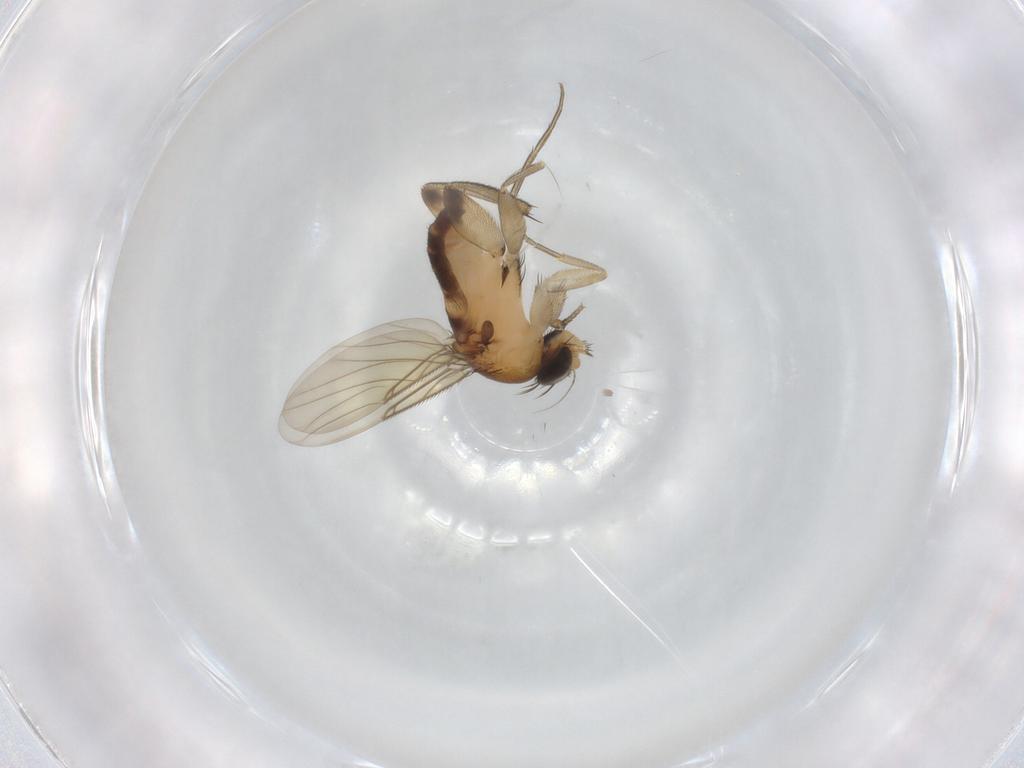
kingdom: Animalia
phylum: Arthropoda
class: Insecta
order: Diptera
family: Phoridae
